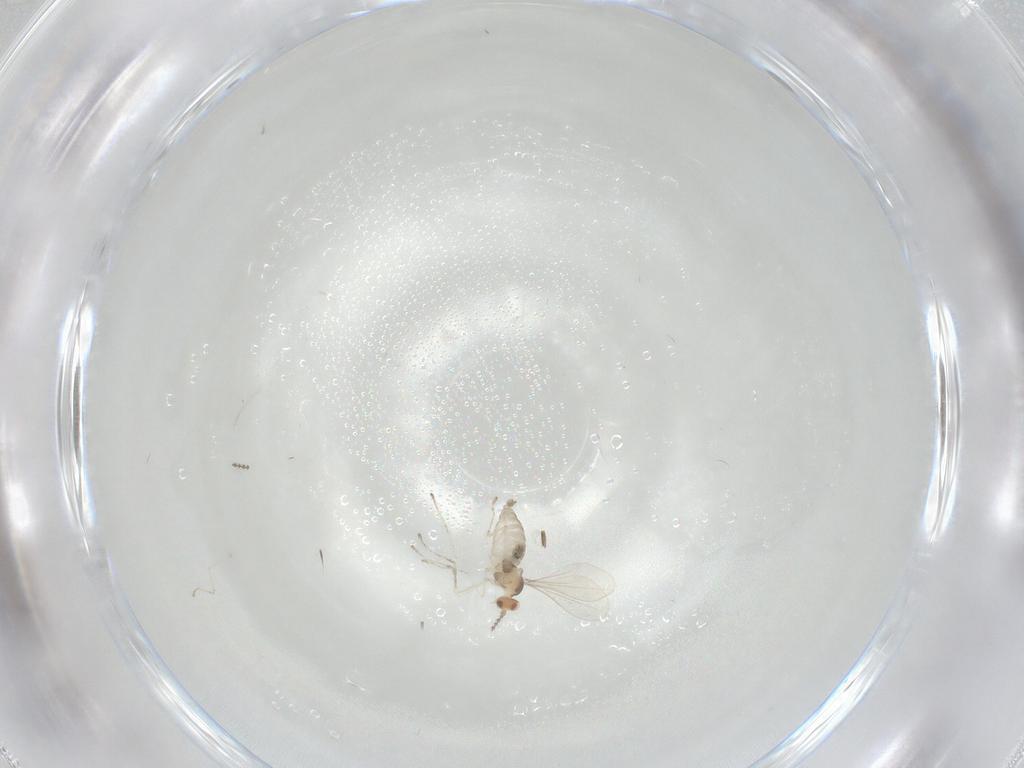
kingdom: Animalia
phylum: Arthropoda
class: Insecta
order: Diptera
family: Cecidomyiidae
